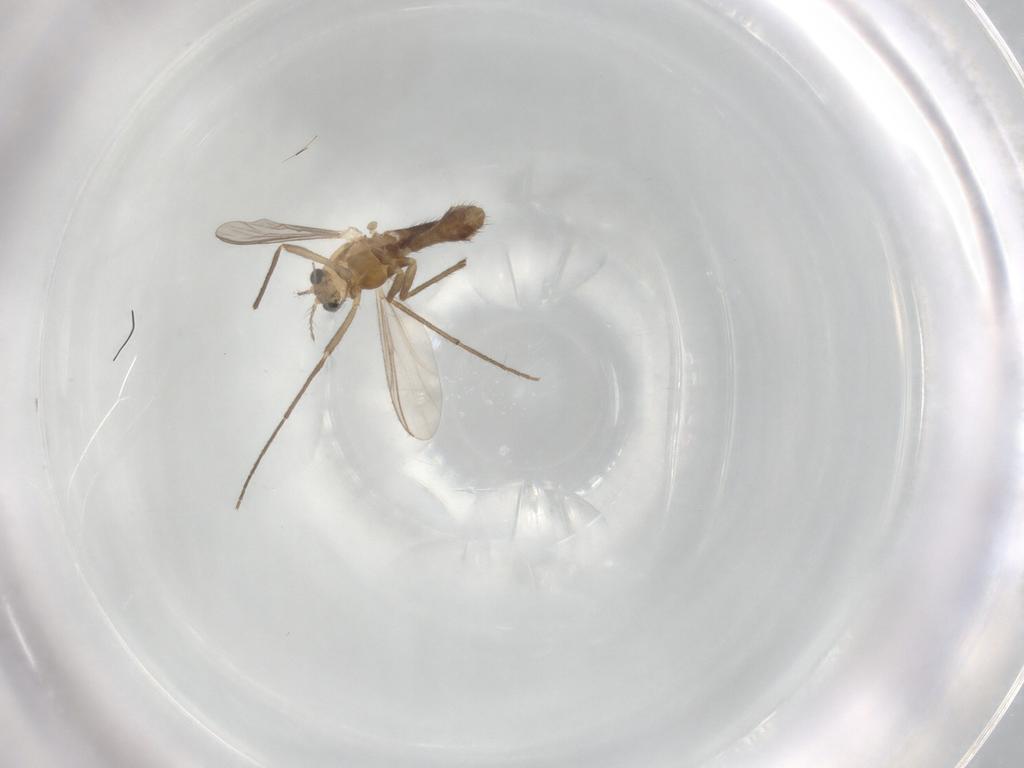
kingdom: Animalia
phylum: Arthropoda
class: Insecta
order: Diptera
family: Chironomidae
